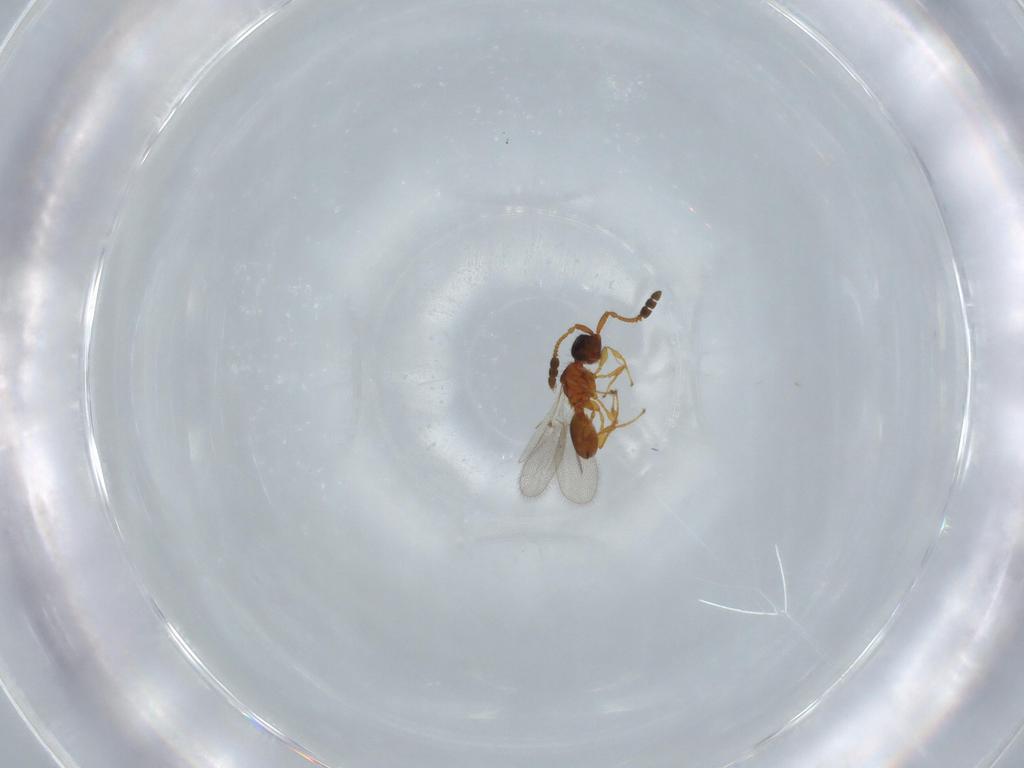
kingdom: Animalia
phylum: Arthropoda
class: Insecta
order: Hymenoptera
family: Diapriidae
